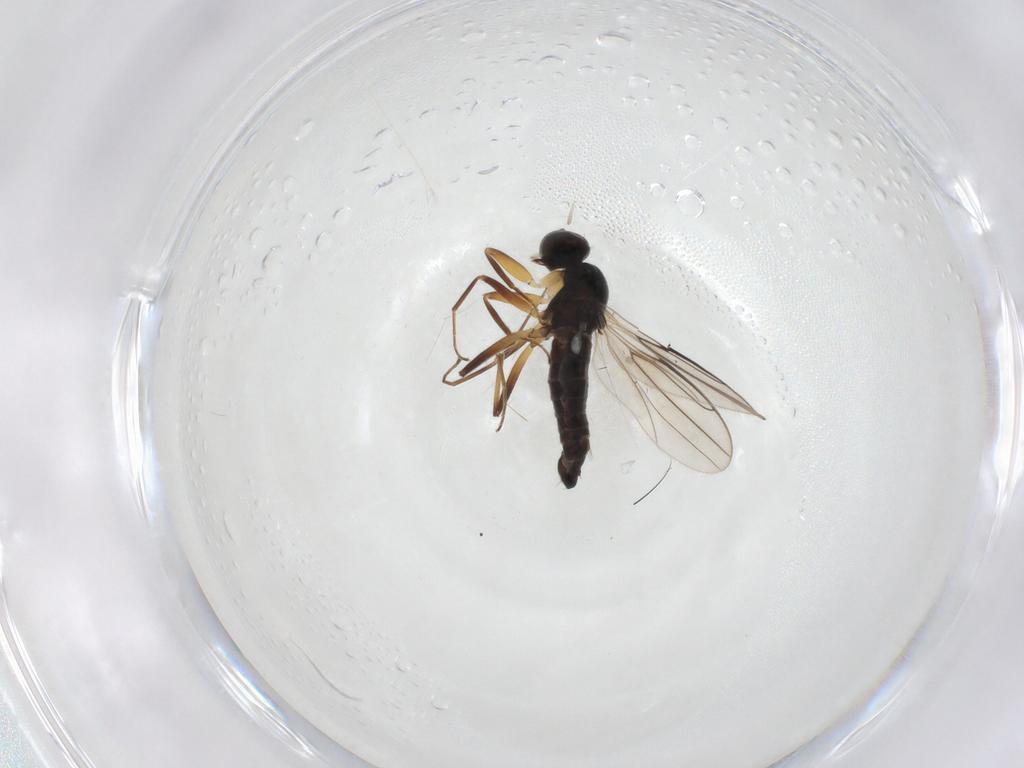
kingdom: Animalia
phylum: Arthropoda
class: Insecta
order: Diptera
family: Hybotidae
